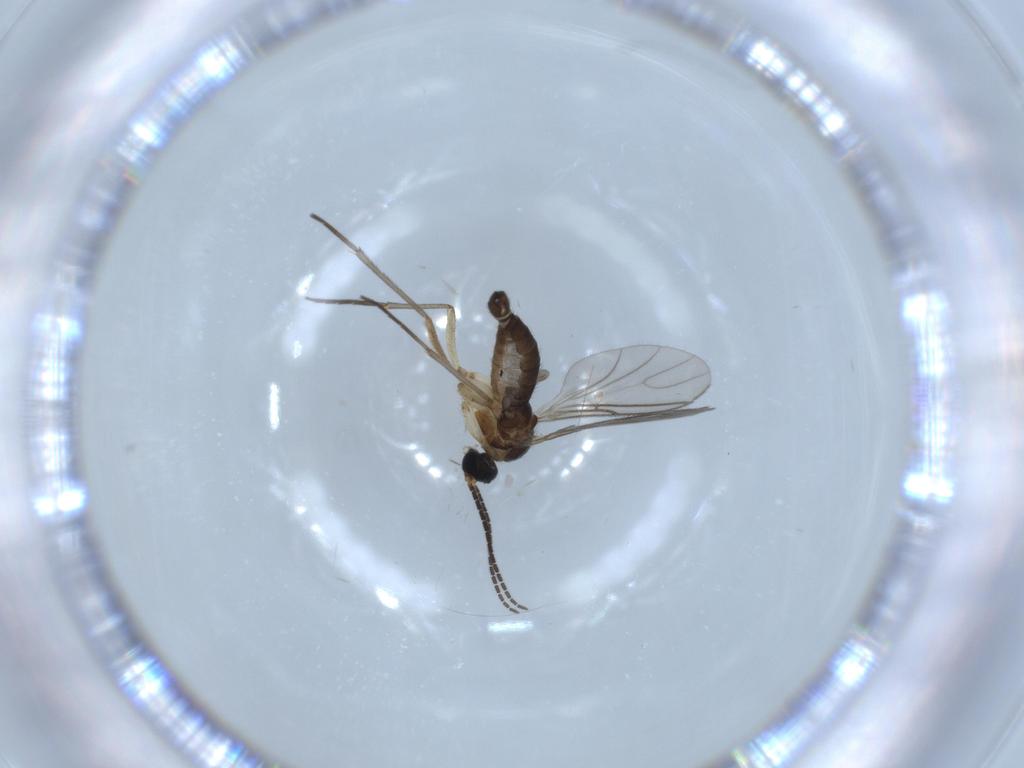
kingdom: Animalia
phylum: Arthropoda
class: Insecta
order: Diptera
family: Sciaridae
